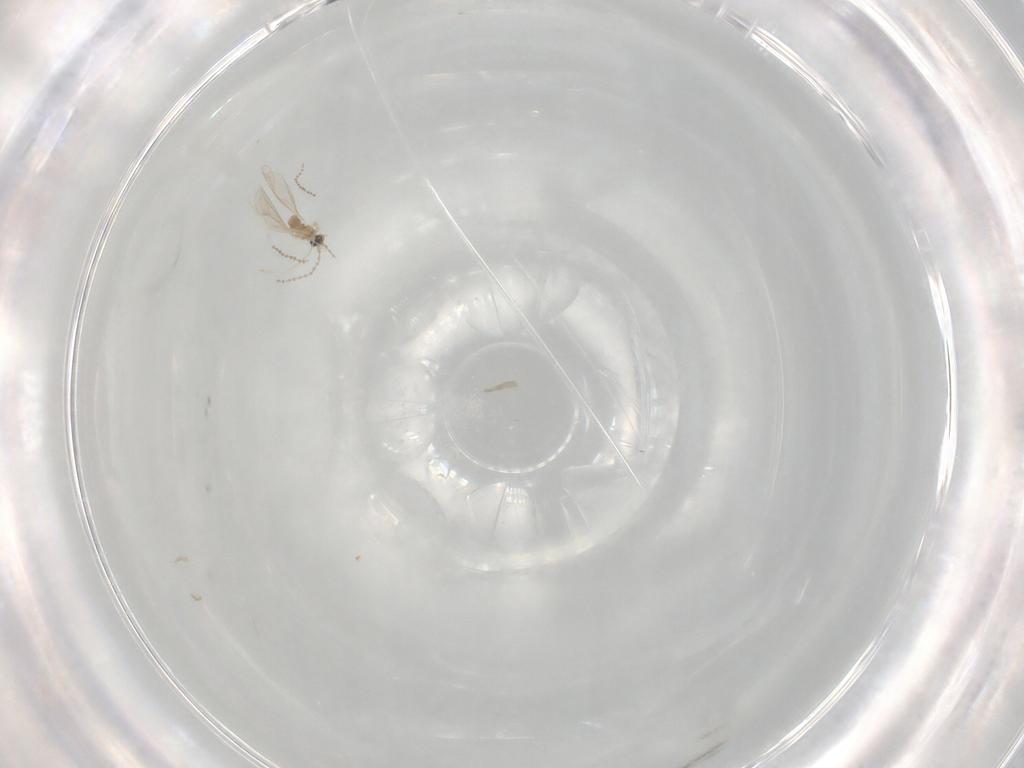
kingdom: Animalia
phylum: Arthropoda
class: Insecta
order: Diptera
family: Cecidomyiidae
